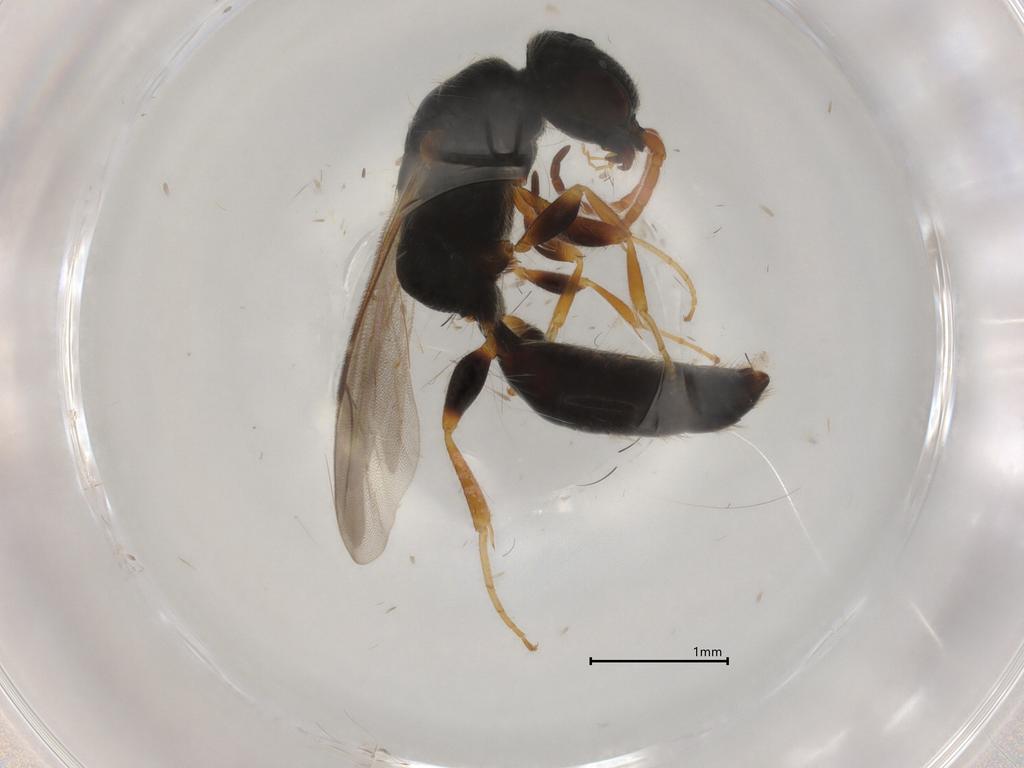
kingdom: Animalia
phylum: Arthropoda
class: Insecta
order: Hymenoptera
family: Bethylidae
